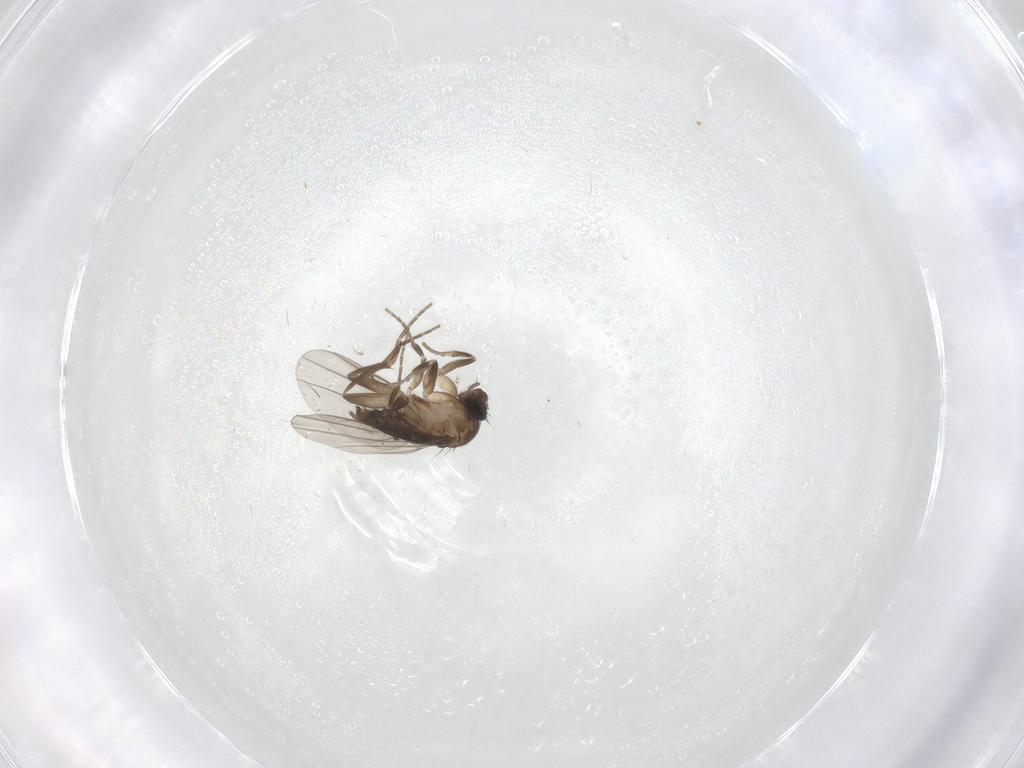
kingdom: Animalia
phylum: Arthropoda
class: Insecta
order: Diptera
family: Phoridae
